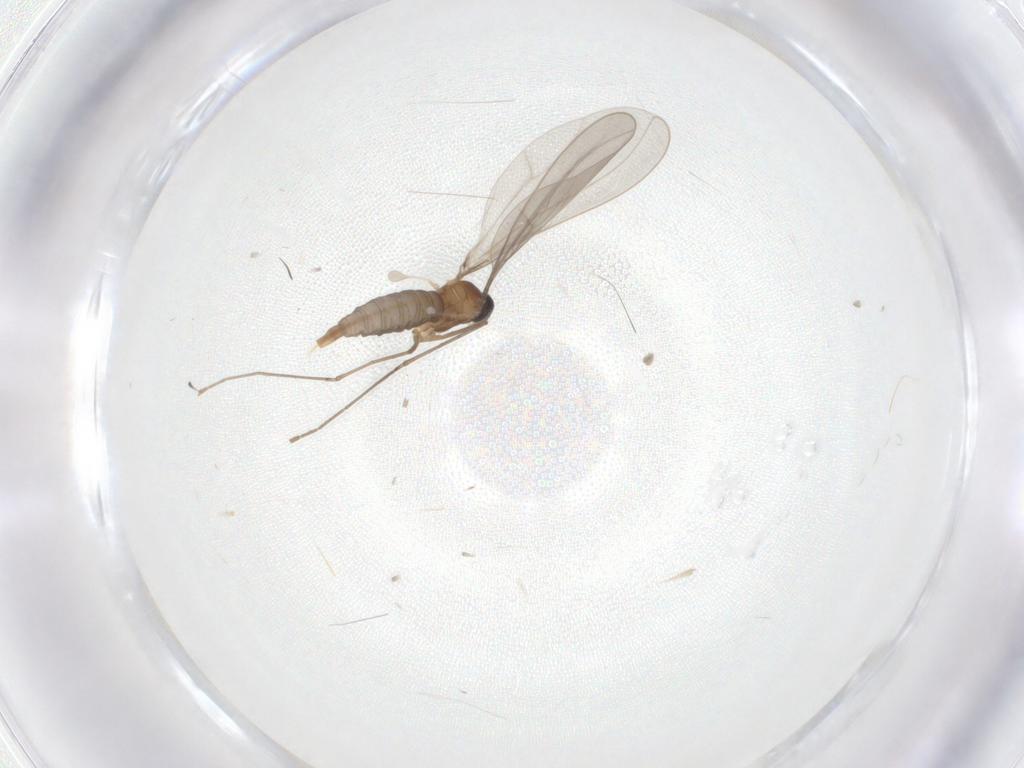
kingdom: Animalia
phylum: Arthropoda
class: Insecta
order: Diptera
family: Cecidomyiidae
